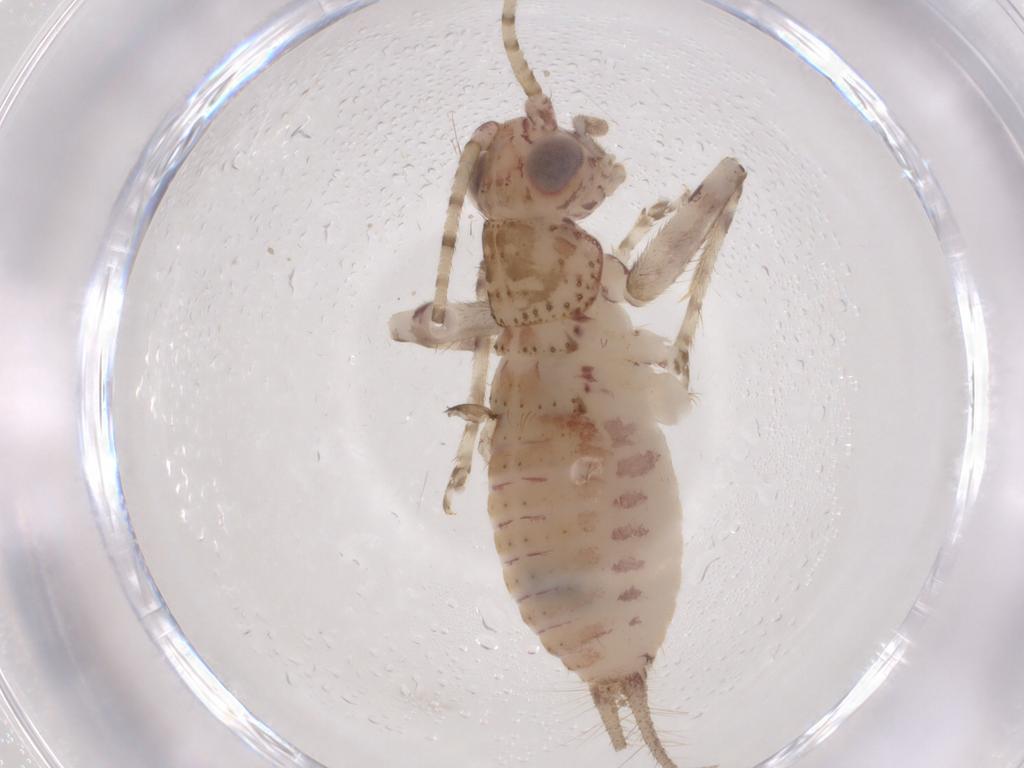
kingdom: Animalia
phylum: Arthropoda
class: Insecta
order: Orthoptera
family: Trigonidiidae
